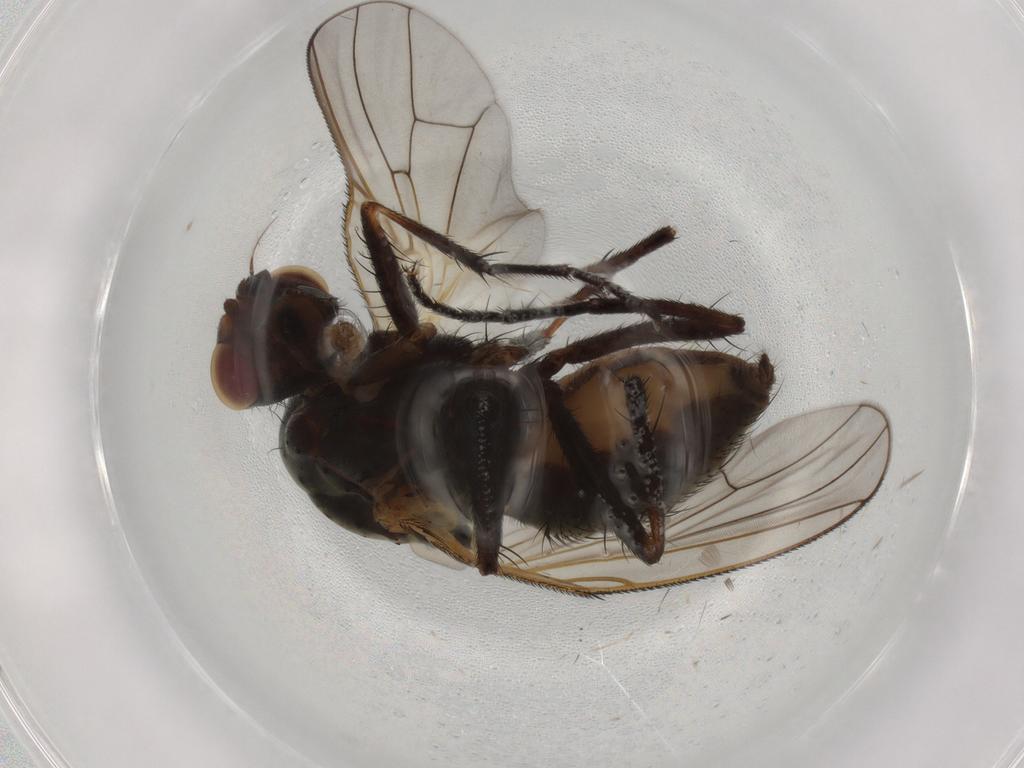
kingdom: Animalia
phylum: Arthropoda
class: Insecta
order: Diptera
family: Anthomyiidae
